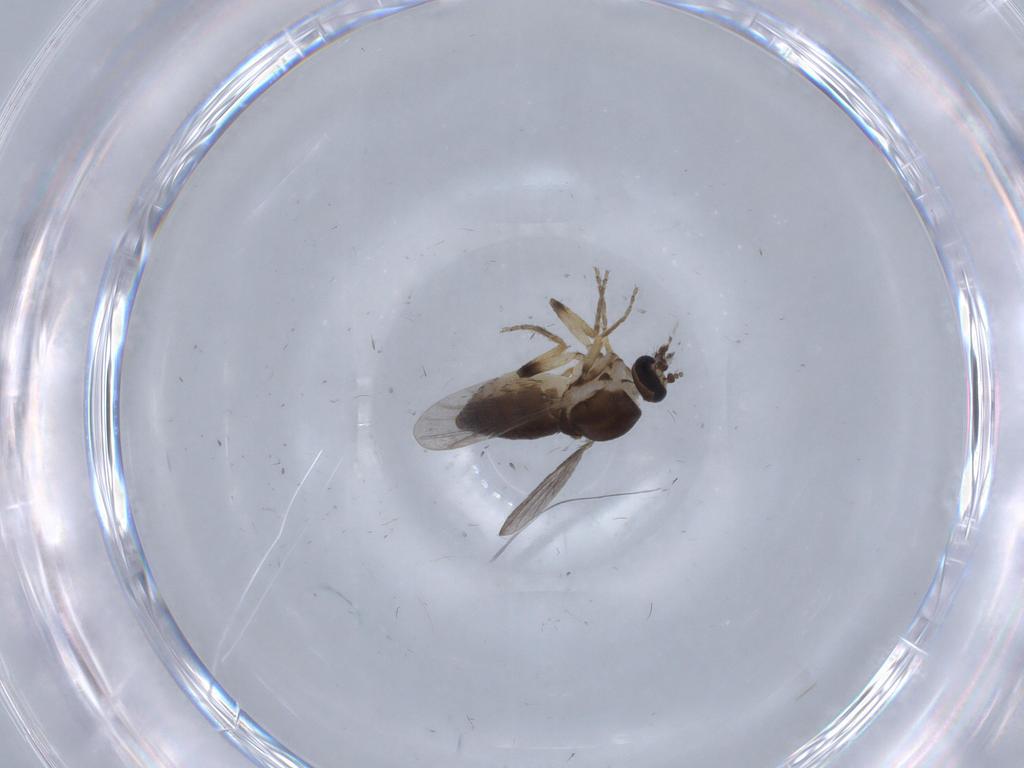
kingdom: Animalia
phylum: Arthropoda
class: Insecta
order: Diptera
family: Ceratopogonidae
